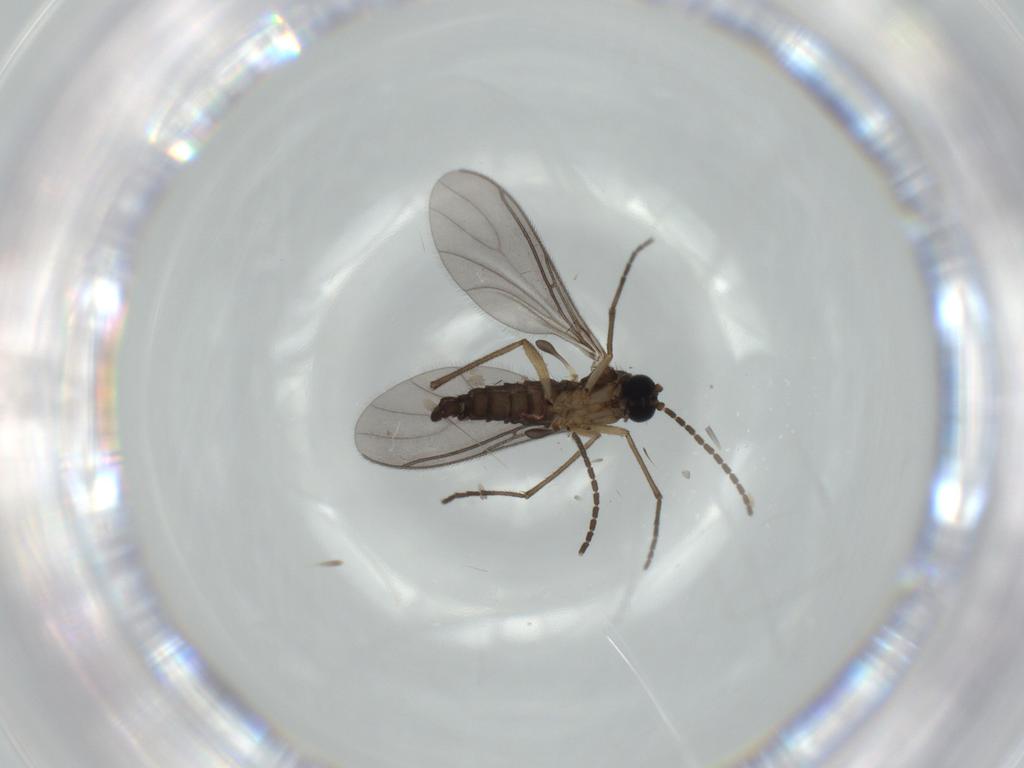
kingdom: Animalia
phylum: Arthropoda
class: Insecta
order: Diptera
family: Sciaridae
